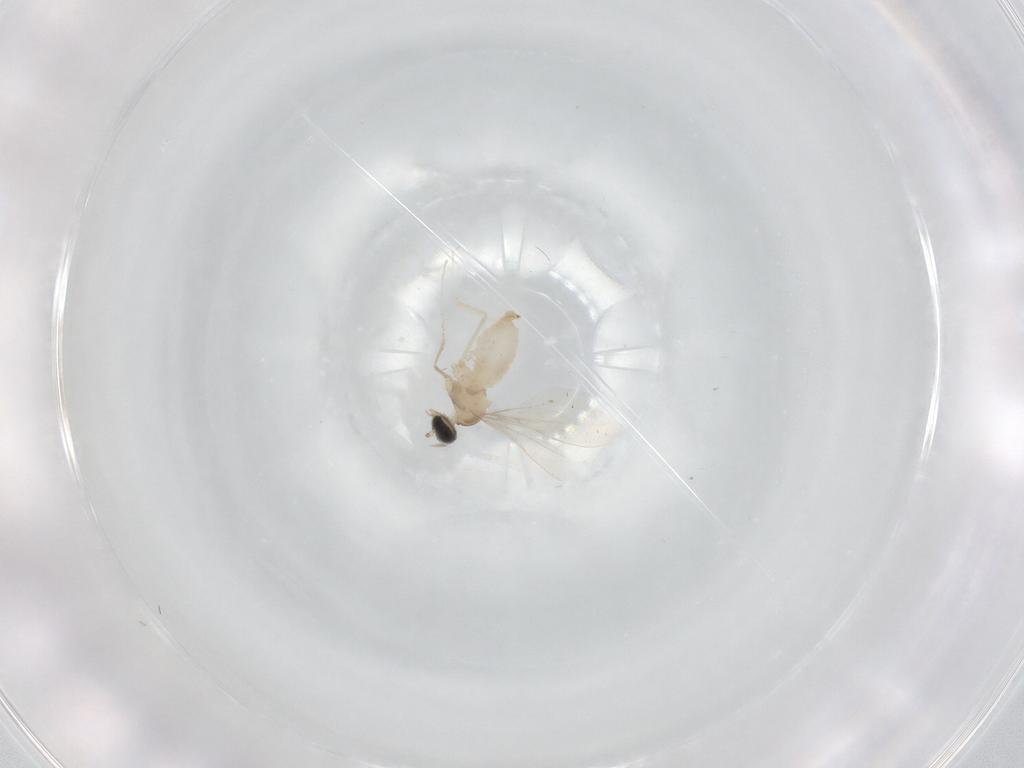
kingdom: Animalia
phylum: Arthropoda
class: Insecta
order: Diptera
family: Cecidomyiidae
